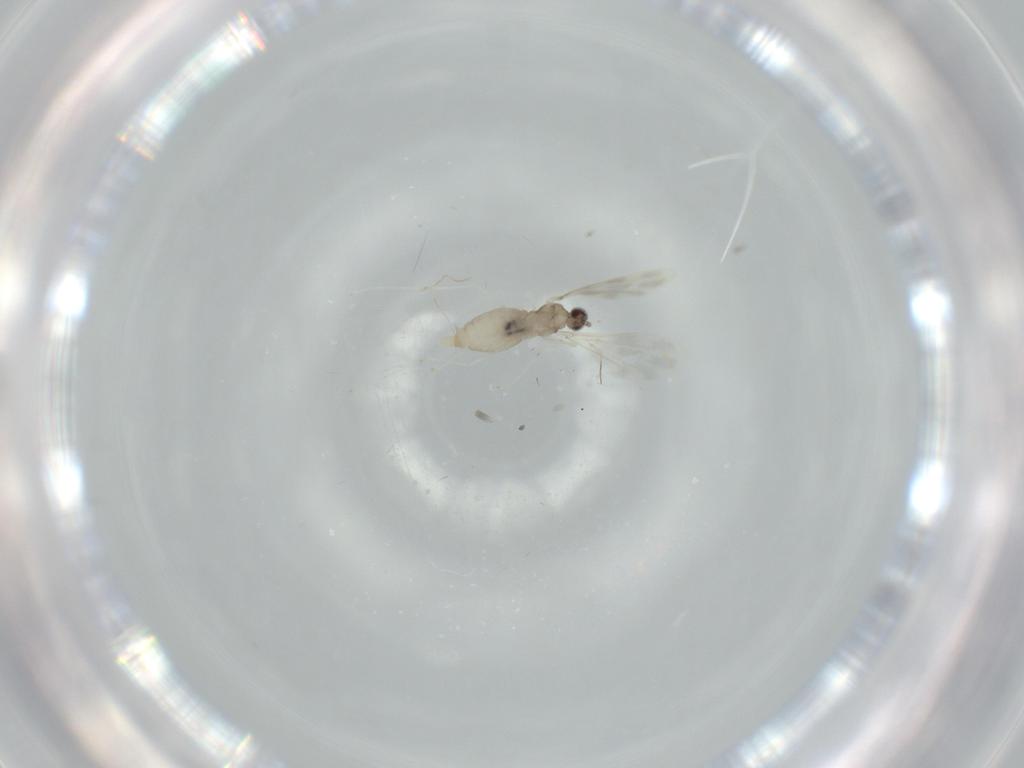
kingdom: Animalia
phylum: Arthropoda
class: Insecta
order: Diptera
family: Cecidomyiidae
